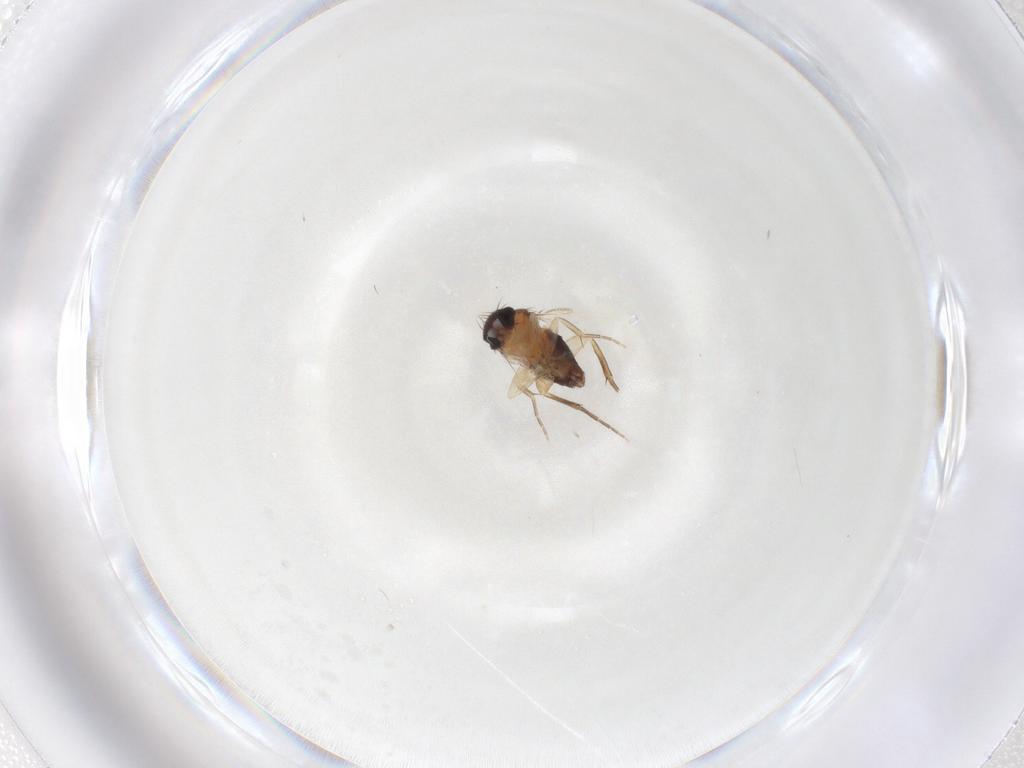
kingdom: Animalia
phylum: Arthropoda
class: Insecta
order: Diptera
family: Phoridae
